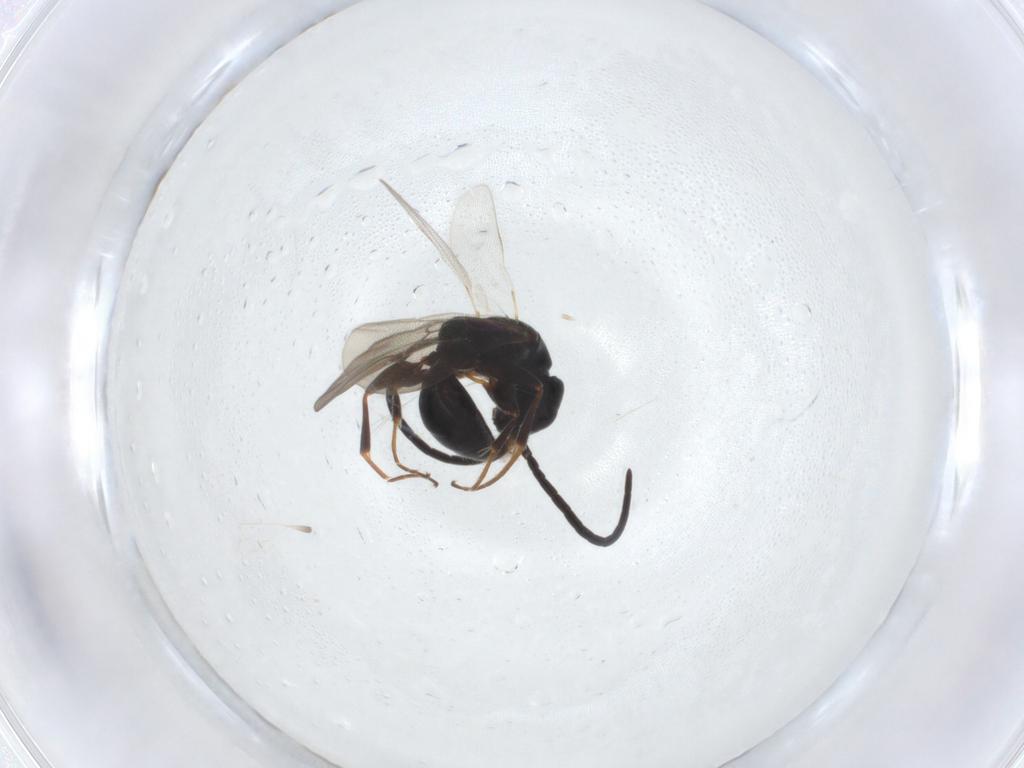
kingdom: Animalia
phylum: Arthropoda
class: Insecta
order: Hymenoptera
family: Bethylidae
